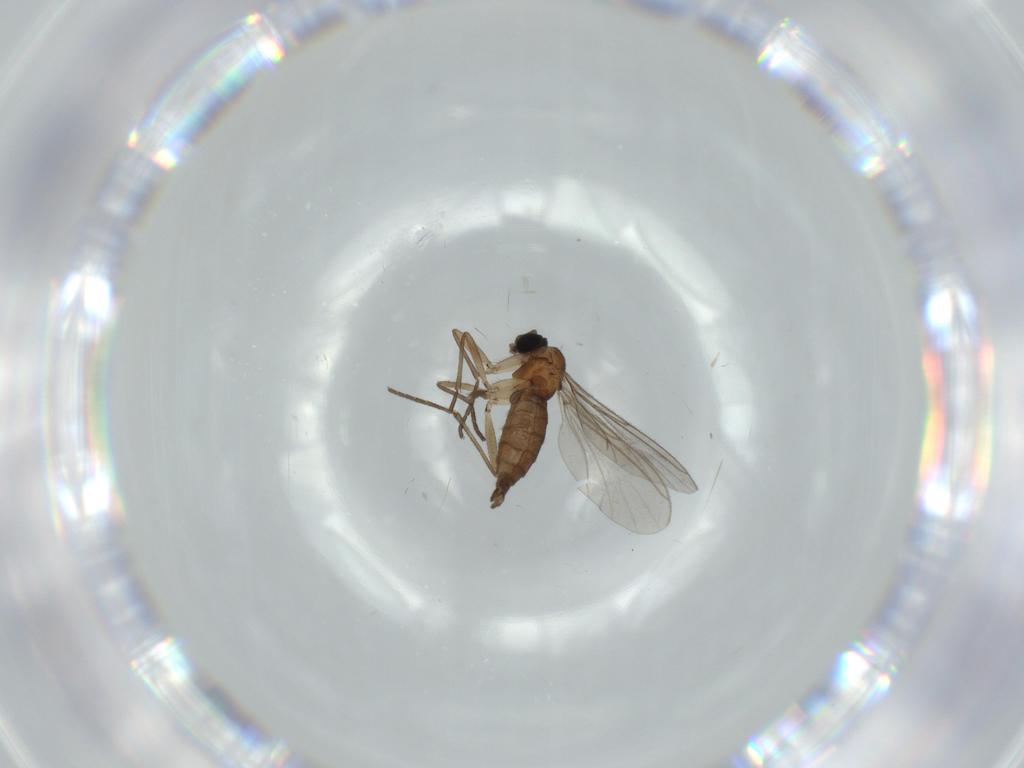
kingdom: Animalia
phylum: Arthropoda
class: Insecta
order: Diptera
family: Sciaridae
